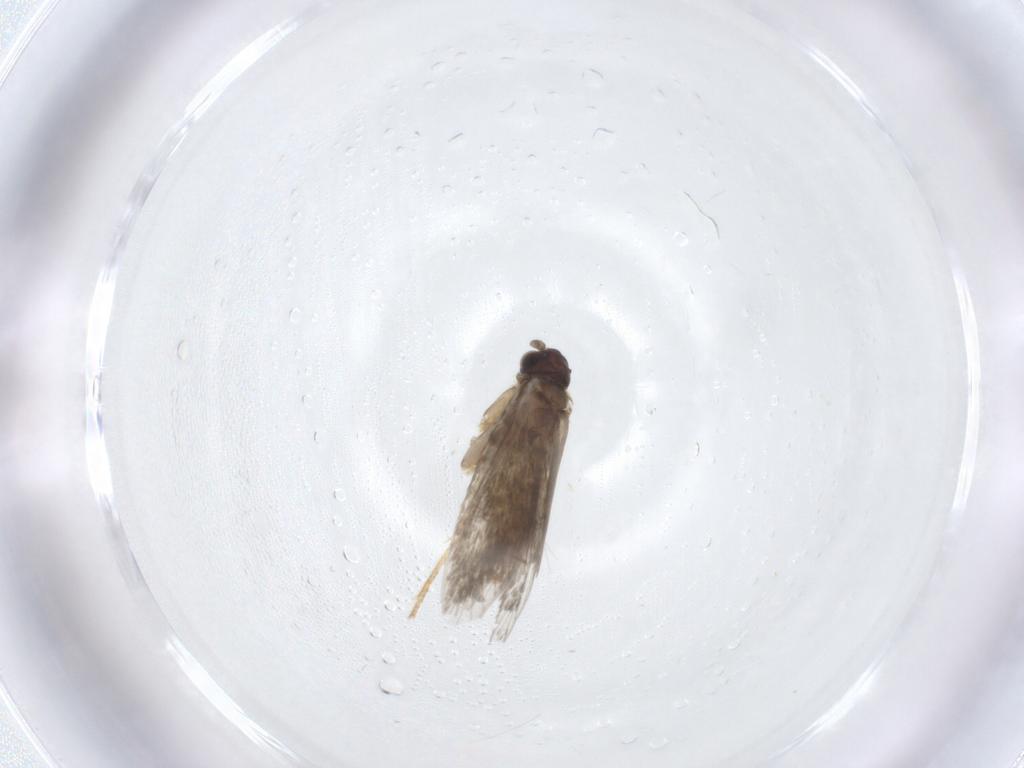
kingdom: Animalia
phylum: Arthropoda
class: Insecta
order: Lepidoptera
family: Micropterigidae
